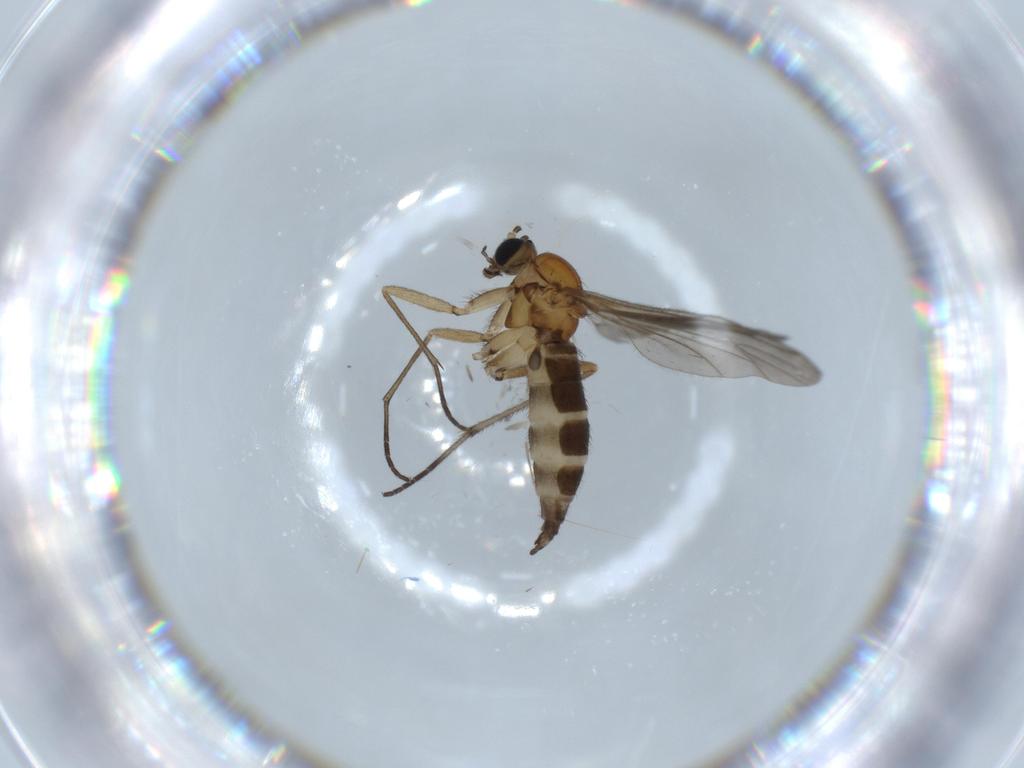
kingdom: Animalia
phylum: Arthropoda
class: Insecta
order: Diptera
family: Sciaridae
